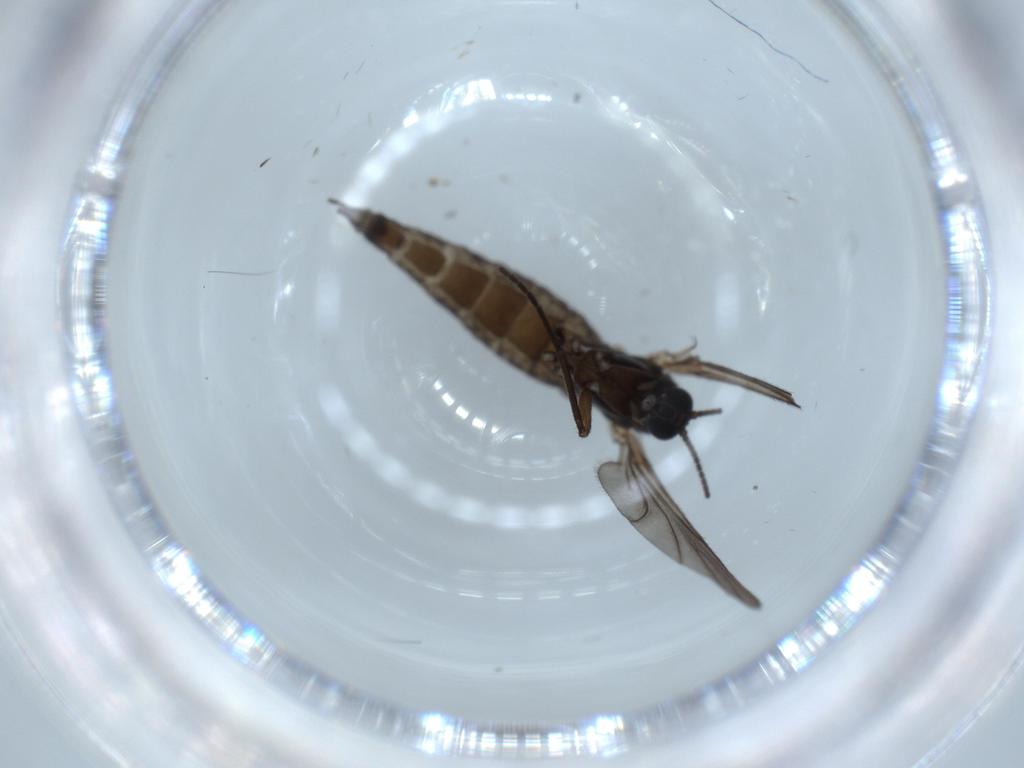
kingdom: Animalia
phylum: Arthropoda
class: Insecta
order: Diptera
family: Sciaridae
